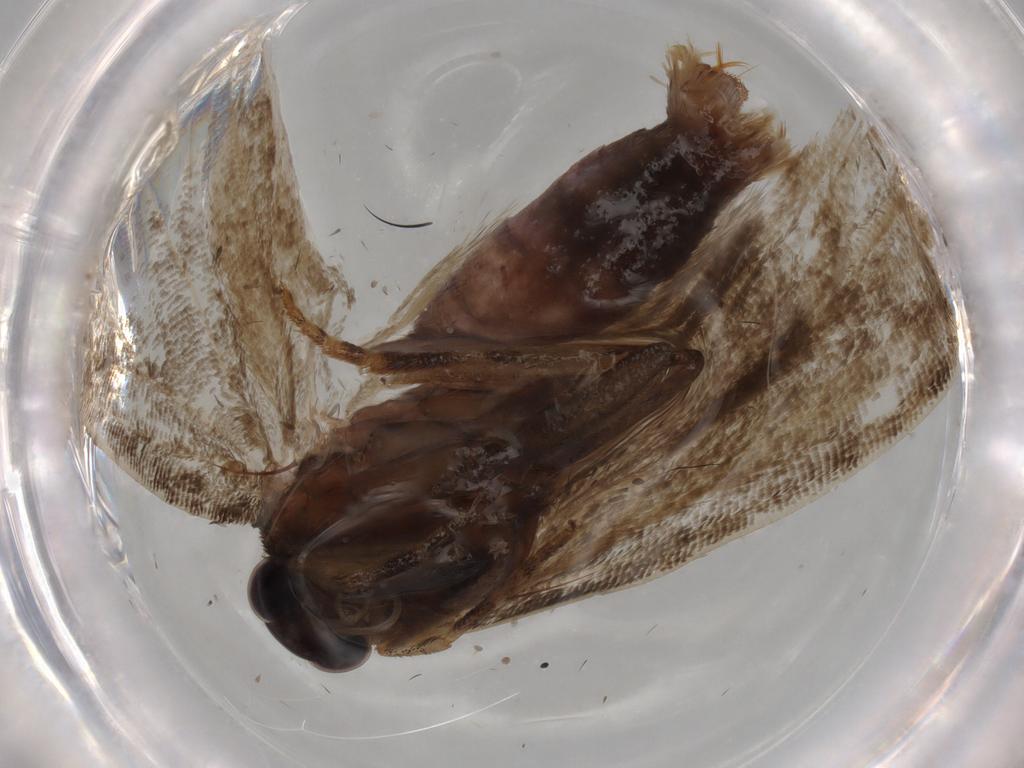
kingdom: Animalia
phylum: Arthropoda
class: Insecta
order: Lepidoptera
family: Tortricidae
